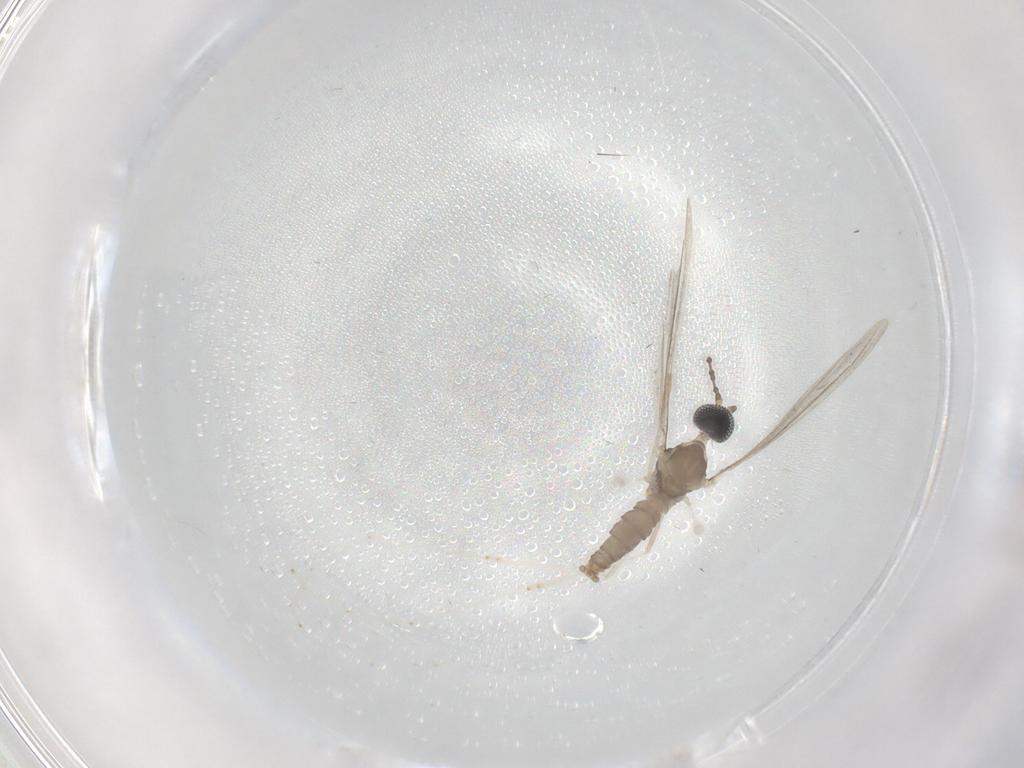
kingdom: Animalia
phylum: Arthropoda
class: Insecta
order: Diptera
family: Cecidomyiidae
